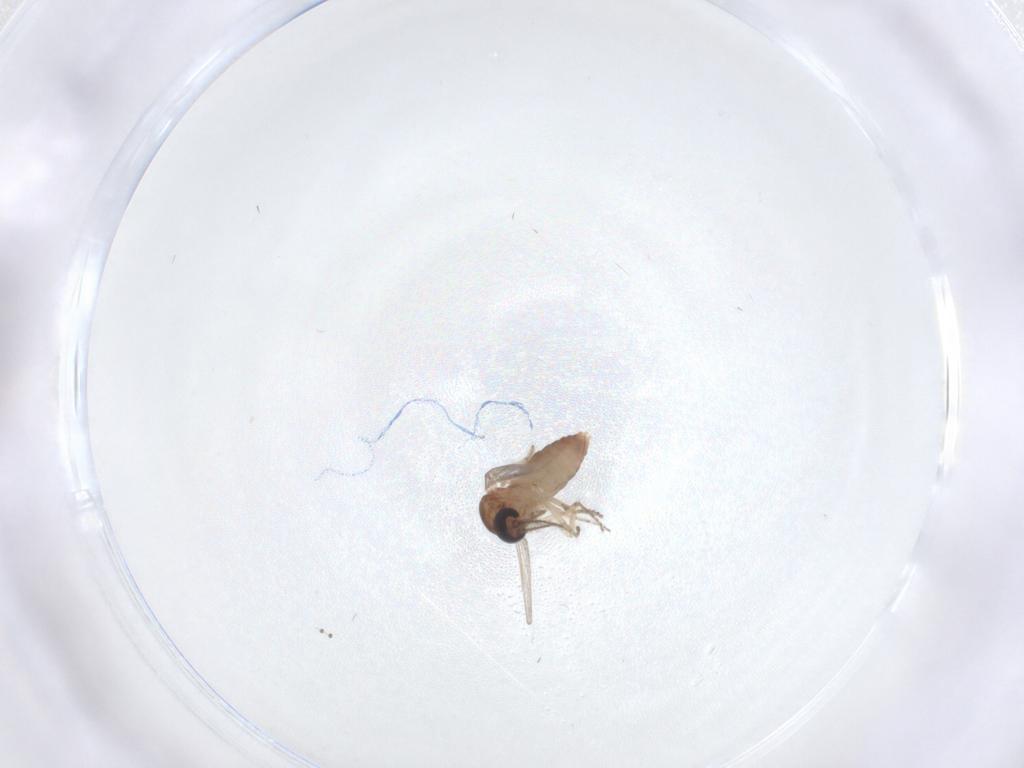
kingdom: Animalia
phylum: Arthropoda
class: Insecta
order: Diptera
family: Ceratopogonidae
